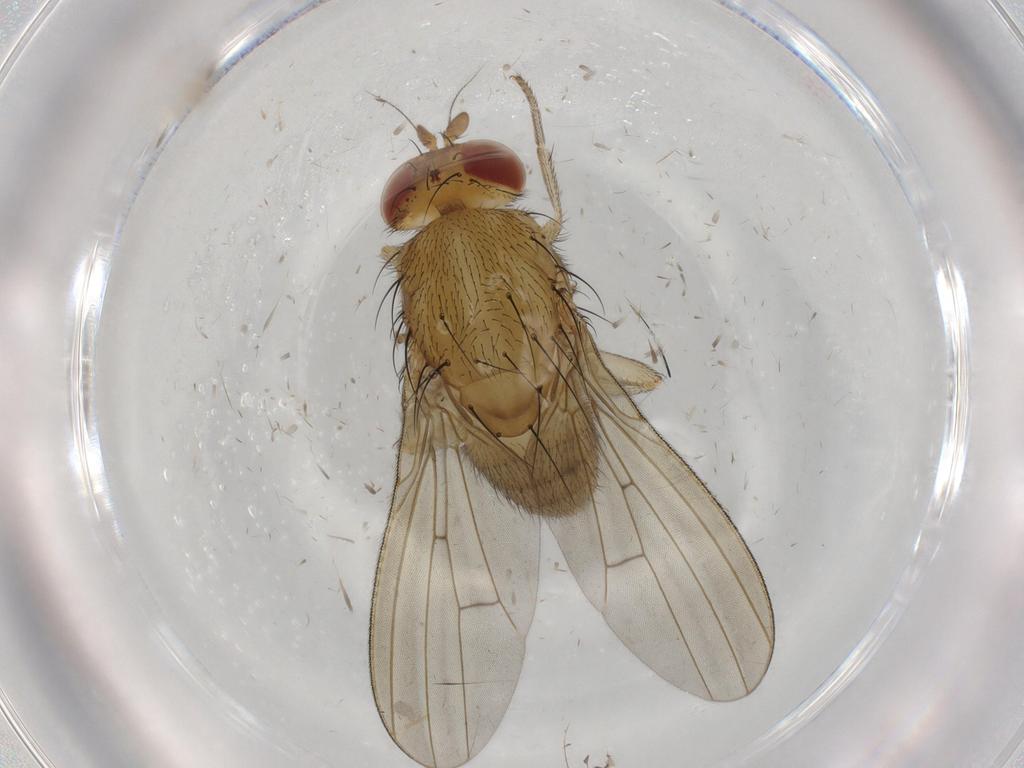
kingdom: Animalia
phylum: Arthropoda
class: Insecta
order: Diptera
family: Cecidomyiidae
